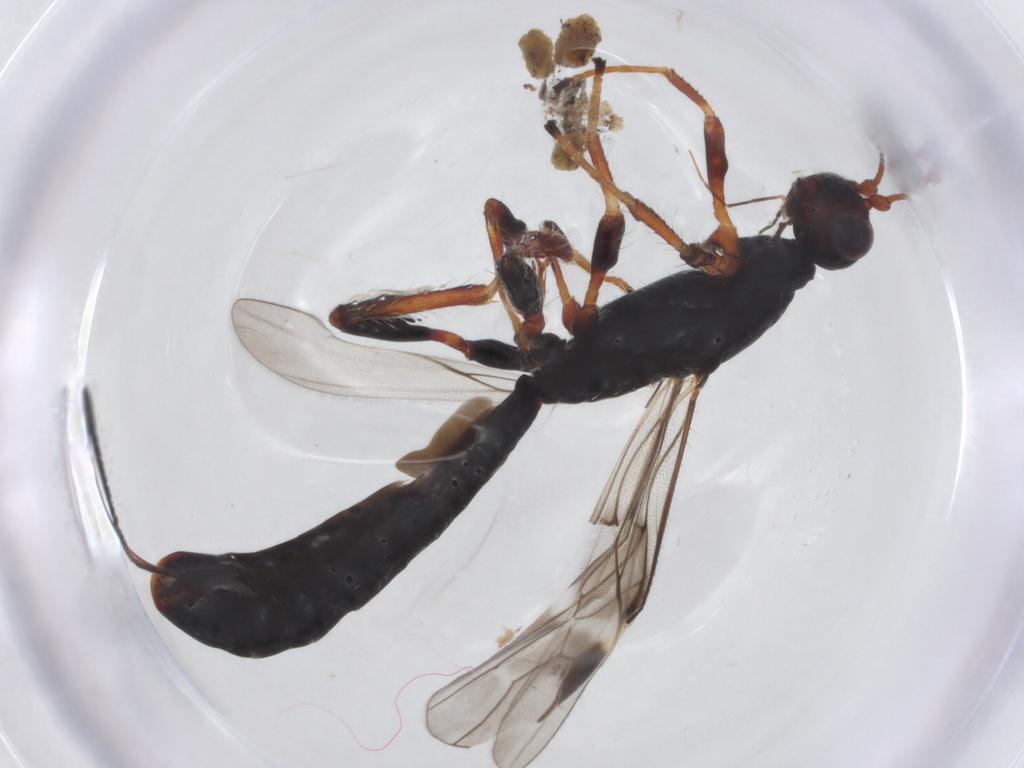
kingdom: Animalia
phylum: Arthropoda
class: Insecta
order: Hymenoptera
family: Braconidae
